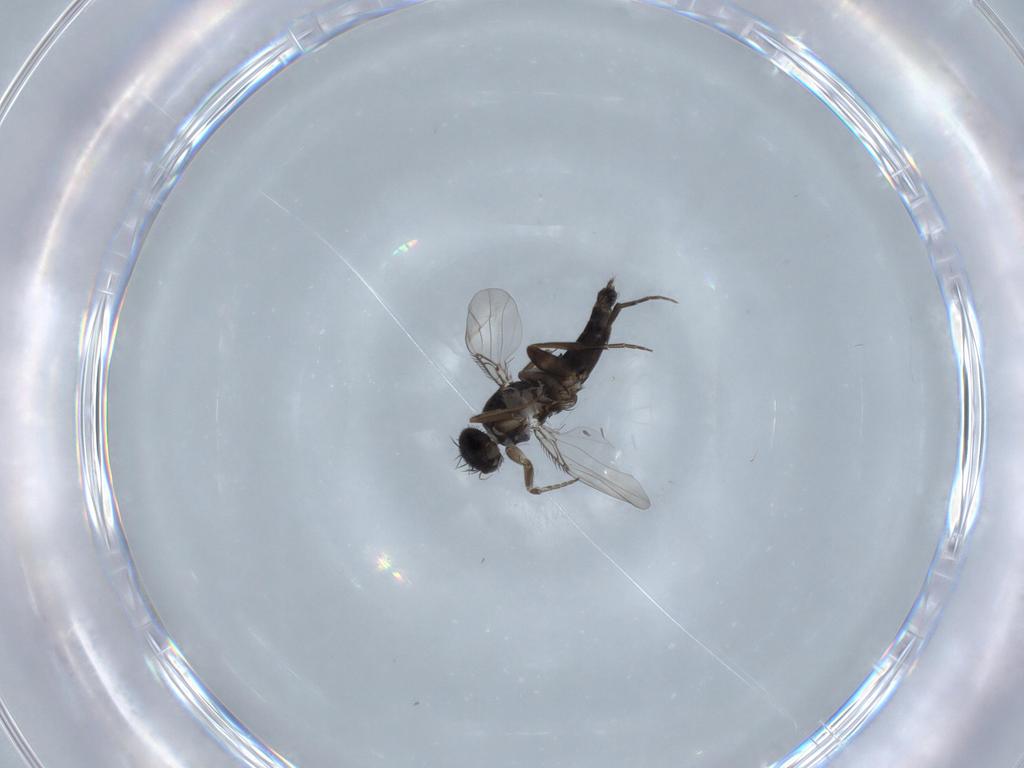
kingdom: Animalia
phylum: Arthropoda
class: Insecta
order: Diptera
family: Phoridae
